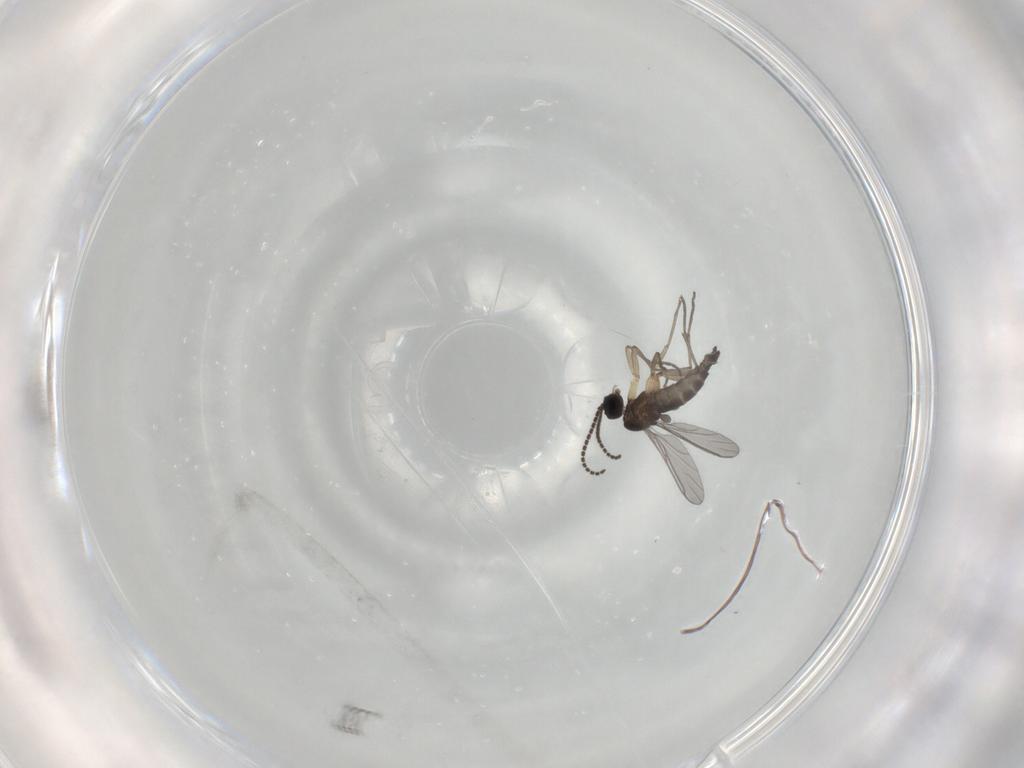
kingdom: Animalia
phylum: Arthropoda
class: Insecta
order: Diptera
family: Sciaridae
